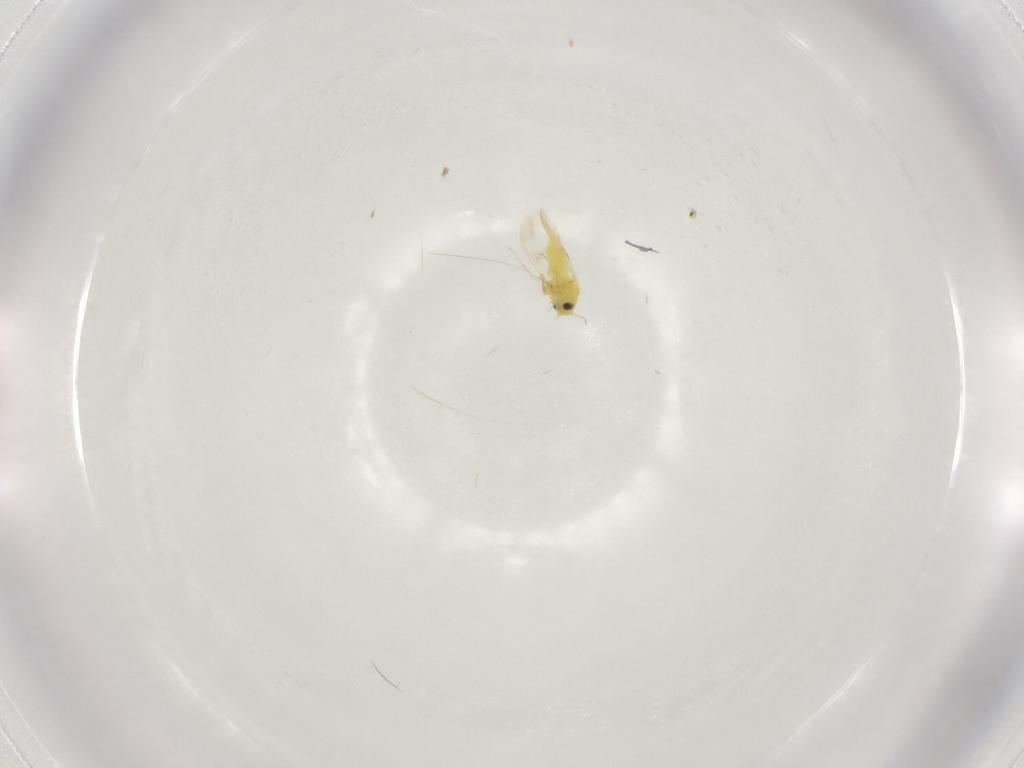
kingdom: Animalia
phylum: Arthropoda
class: Insecta
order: Hemiptera
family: Aleyrodidae
